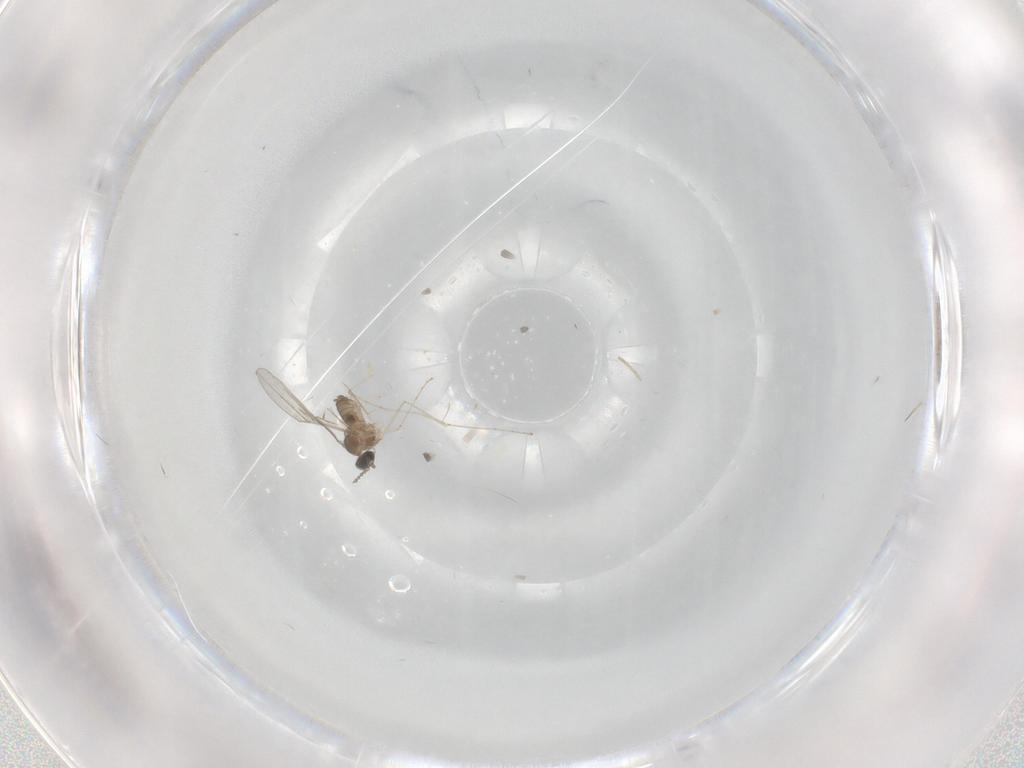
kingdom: Animalia
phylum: Arthropoda
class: Insecta
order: Diptera
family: Cecidomyiidae
